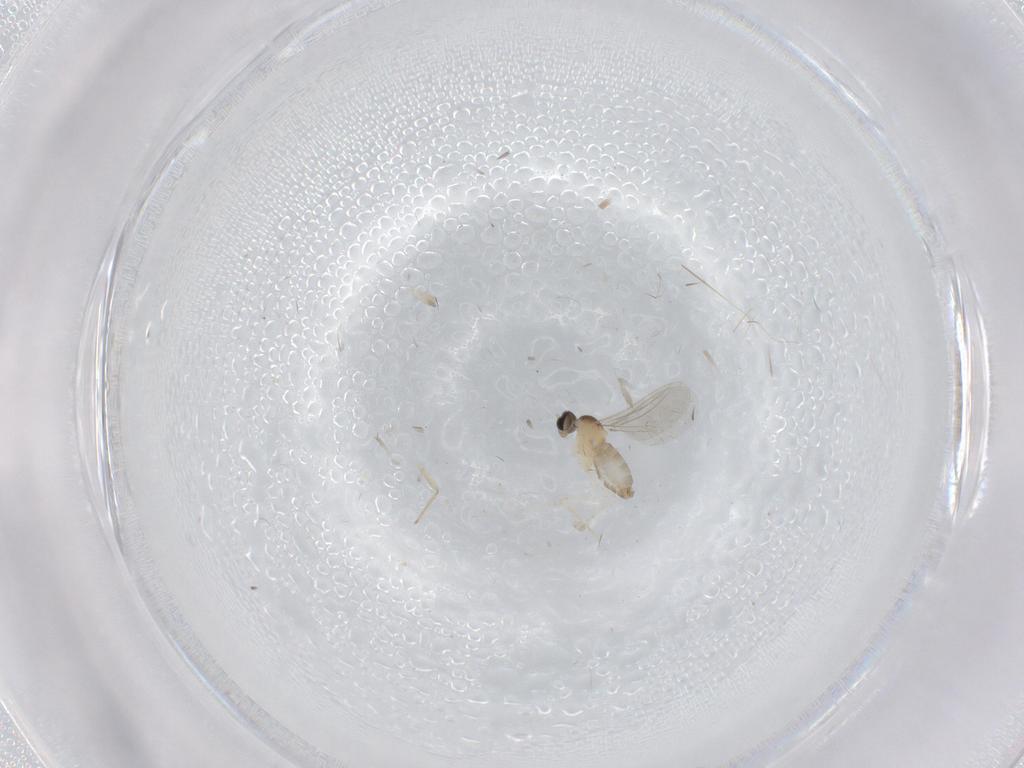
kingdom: Animalia
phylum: Arthropoda
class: Insecta
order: Diptera
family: Cecidomyiidae
